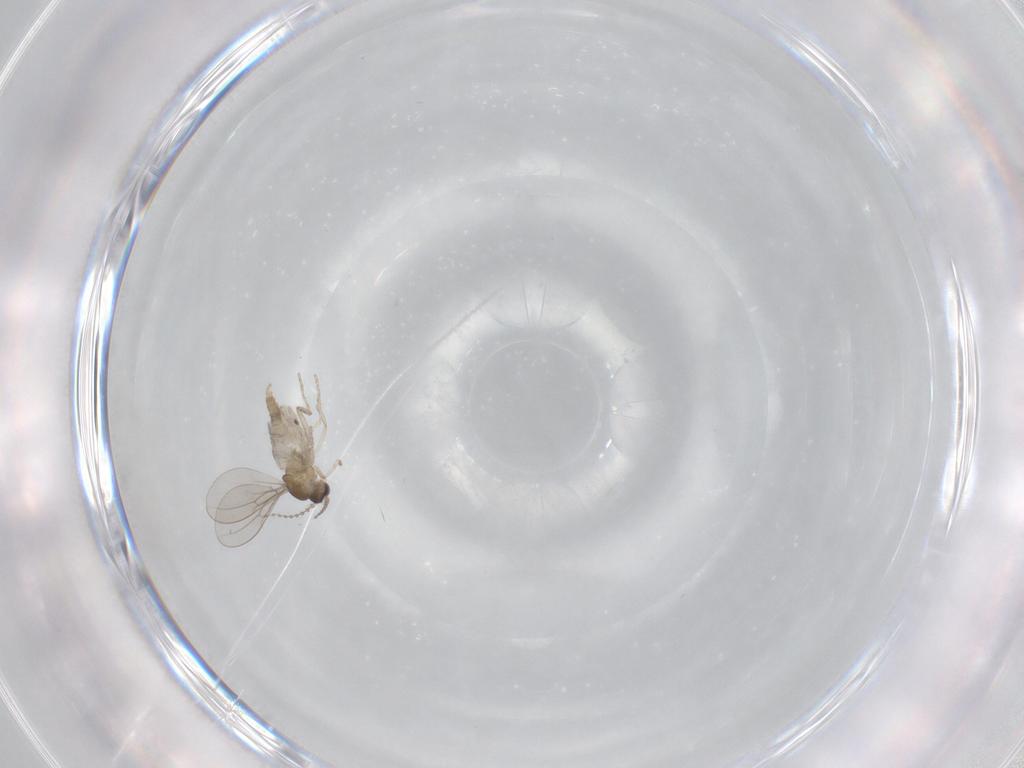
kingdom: Animalia
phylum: Arthropoda
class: Insecta
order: Diptera
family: Cecidomyiidae
